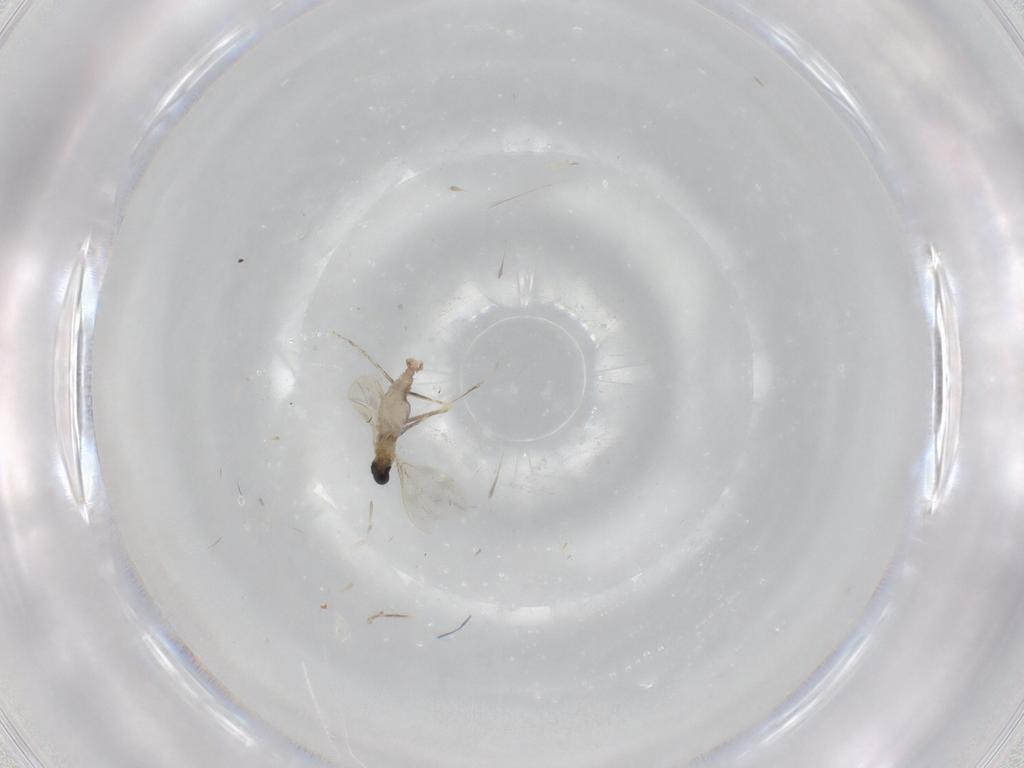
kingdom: Animalia
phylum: Arthropoda
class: Insecta
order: Diptera
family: Cecidomyiidae
